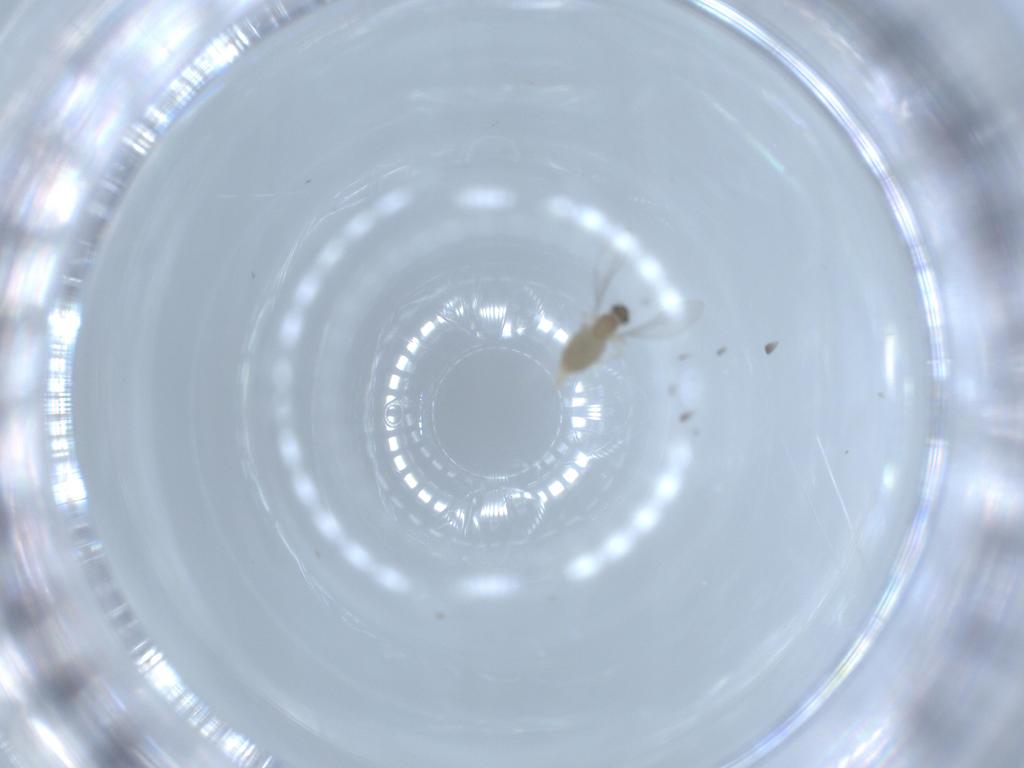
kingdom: Animalia
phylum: Arthropoda
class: Insecta
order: Diptera
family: Cecidomyiidae
